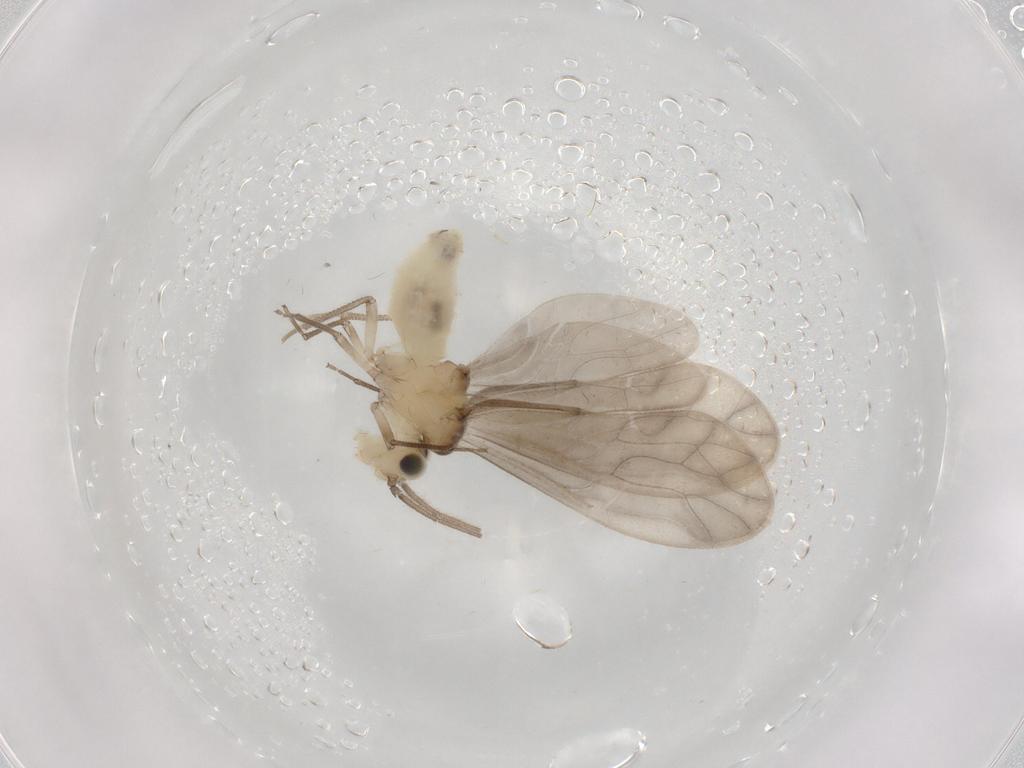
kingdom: Animalia
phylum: Arthropoda
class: Insecta
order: Psocodea
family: Caeciliusidae
